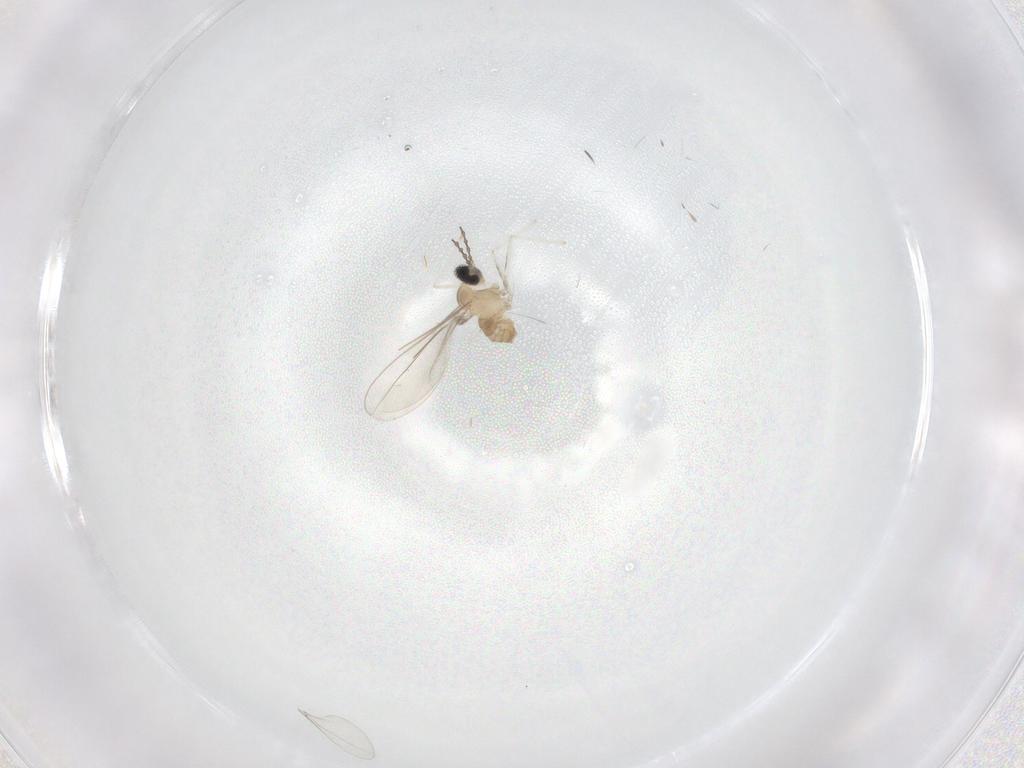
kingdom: Animalia
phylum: Arthropoda
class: Insecta
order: Diptera
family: Cecidomyiidae
